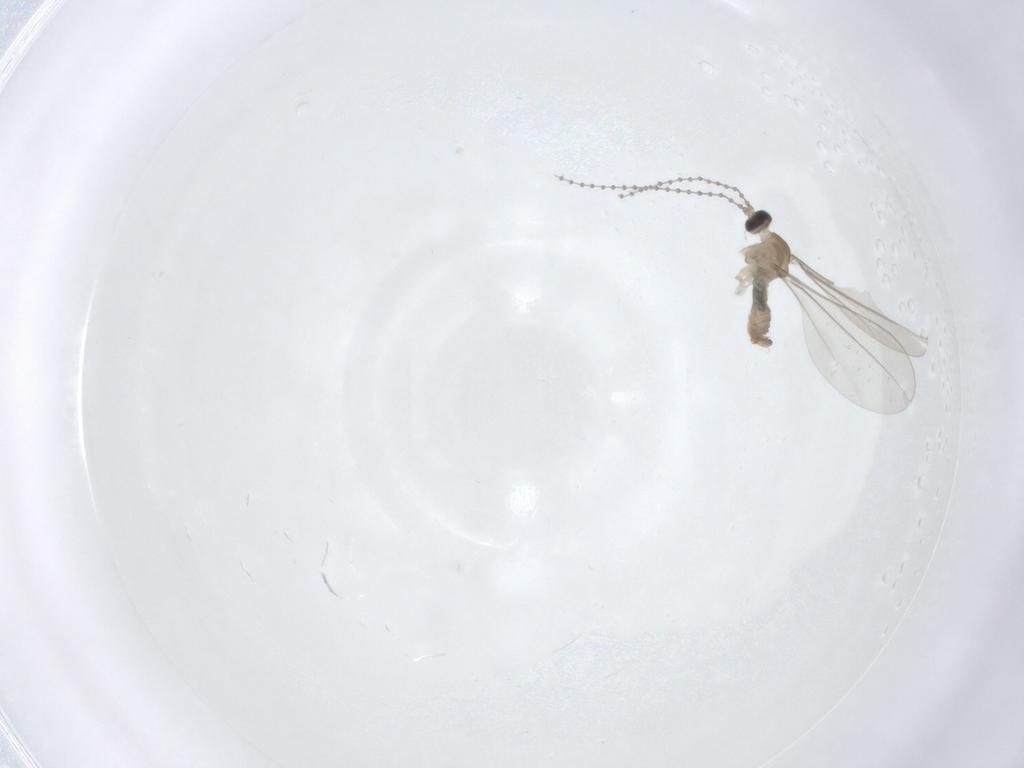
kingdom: Animalia
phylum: Arthropoda
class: Insecta
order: Diptera
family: Cecidomyiidae
